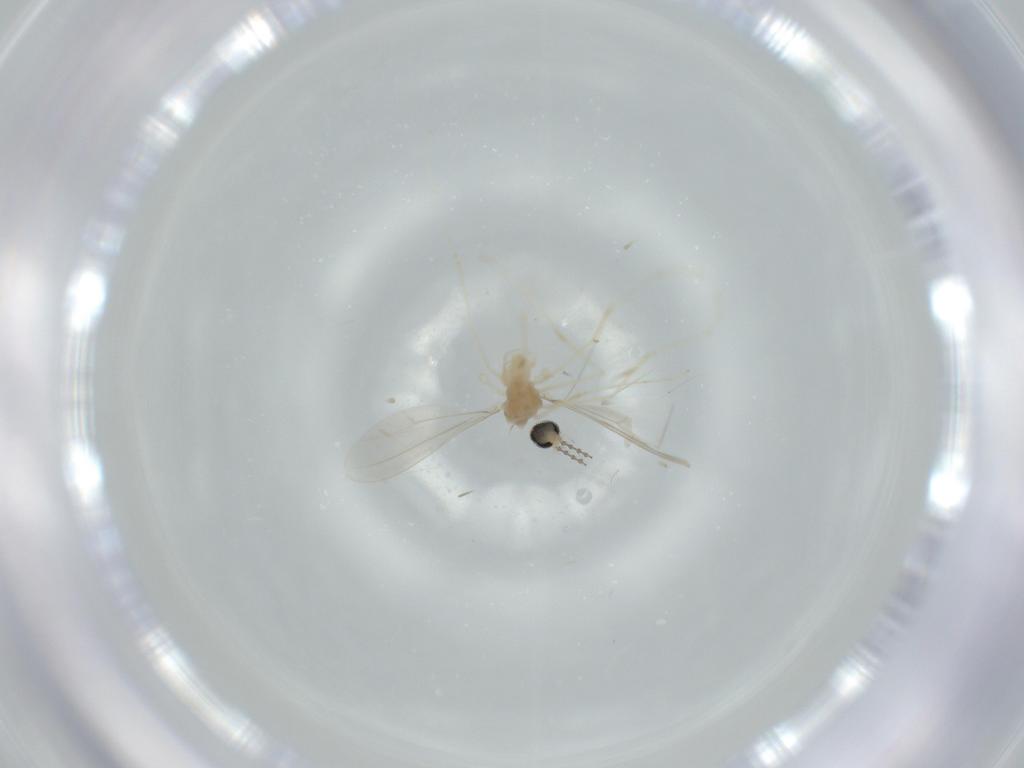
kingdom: Animalia
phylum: Arthropoda
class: Insecta
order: Diptera
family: Cecidomyiidae
